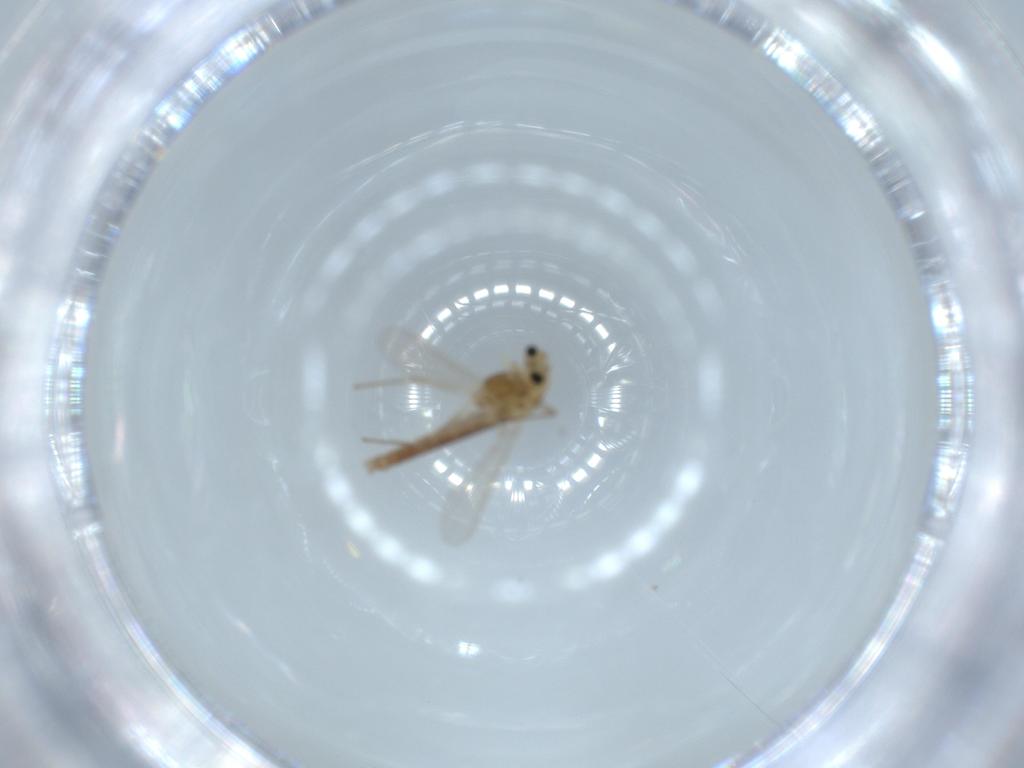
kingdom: Animalia
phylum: Arthropoda
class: Insecta
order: Diptera
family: Chironomidae
